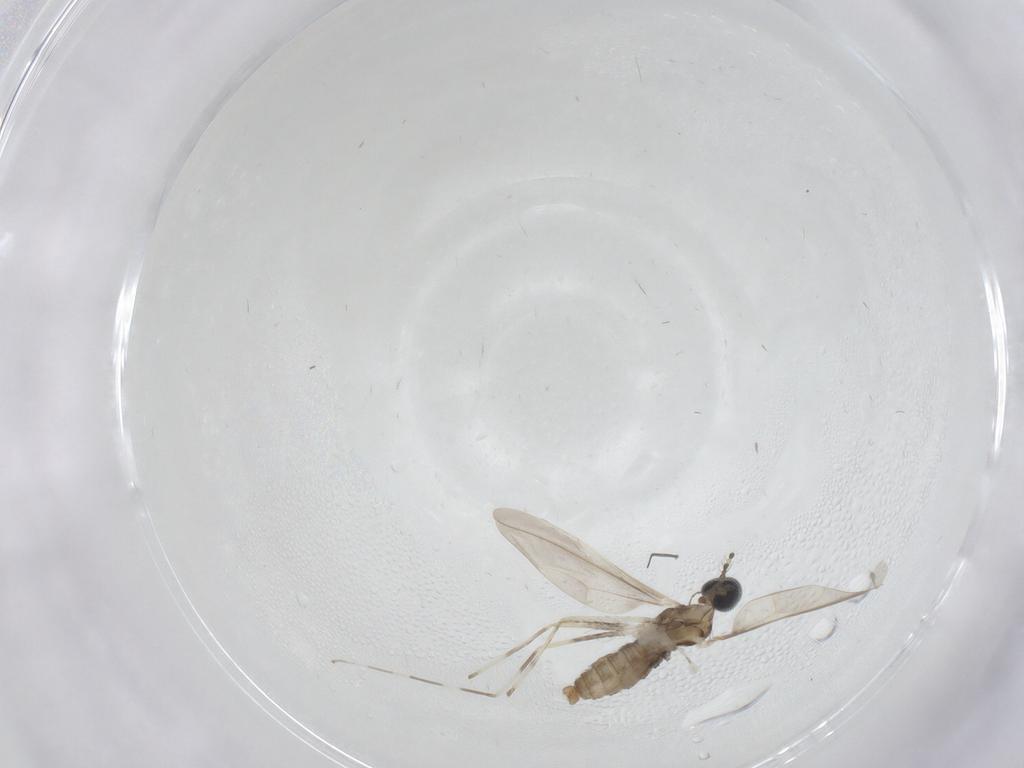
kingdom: Animalia
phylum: Arthropoda
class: Insecta
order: Diptera
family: Cecidomyiidae
